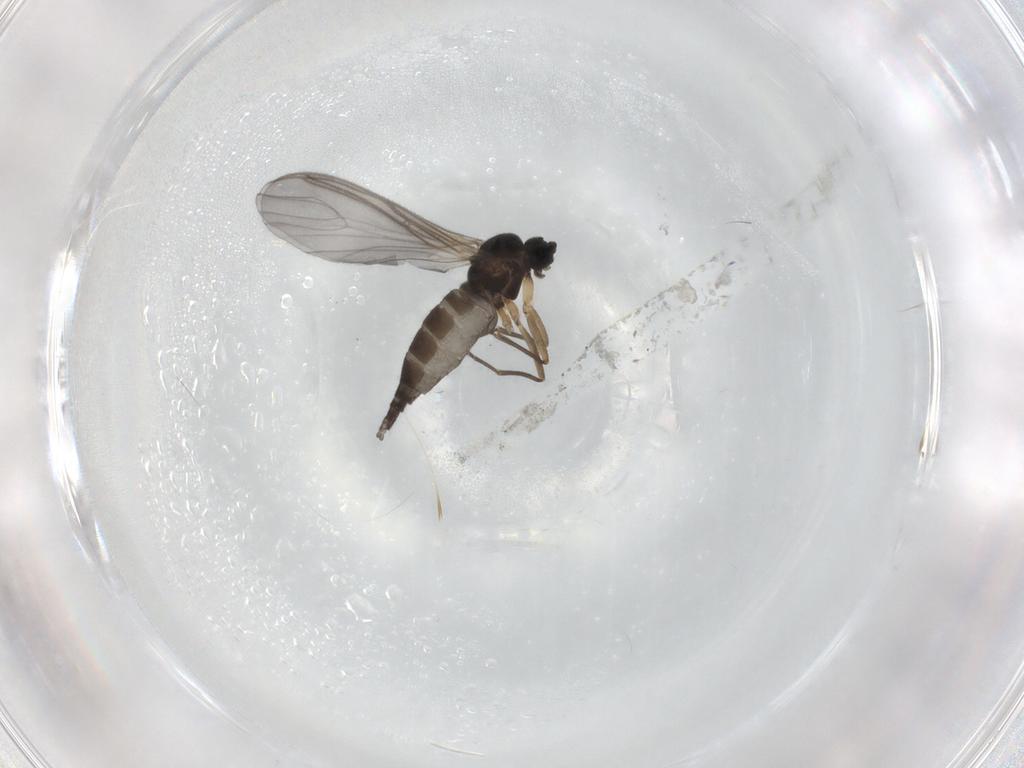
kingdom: Animalia
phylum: Arthropoda
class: Insecta
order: Diptera
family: Sciaridae
